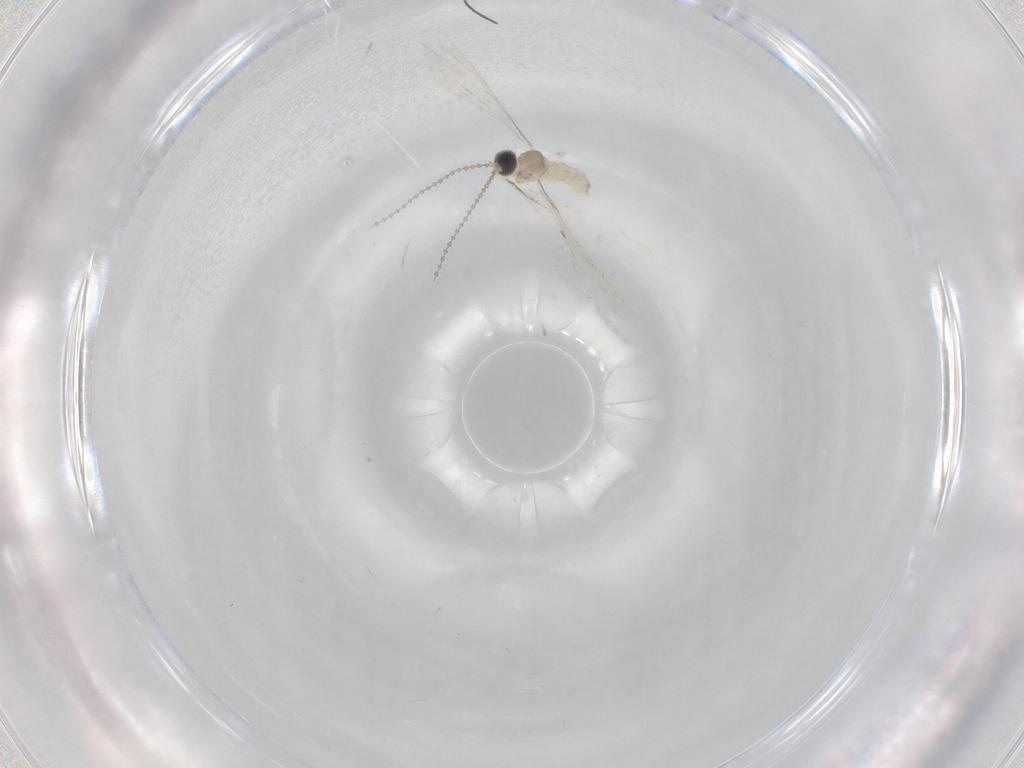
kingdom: Animalia
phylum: Arthropoda
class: Insecta
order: Diptera
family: Cecidomyiidae
